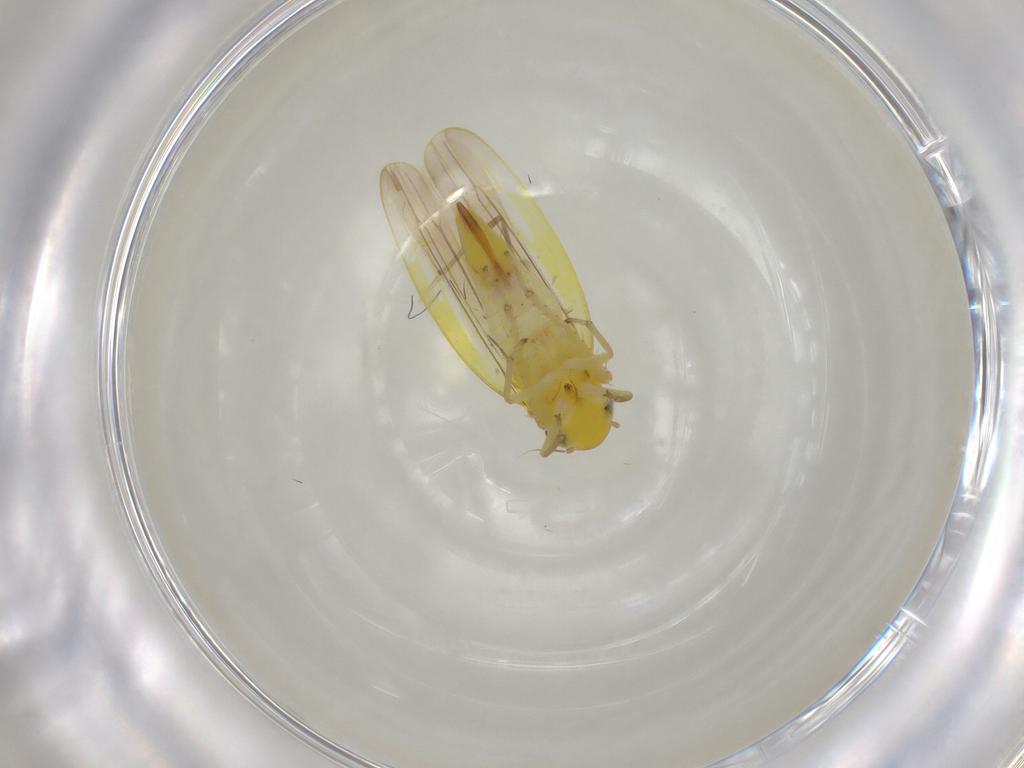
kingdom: Animalia
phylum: Arthropoda
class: Insecta
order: Hemiptera
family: Cicadellidae
